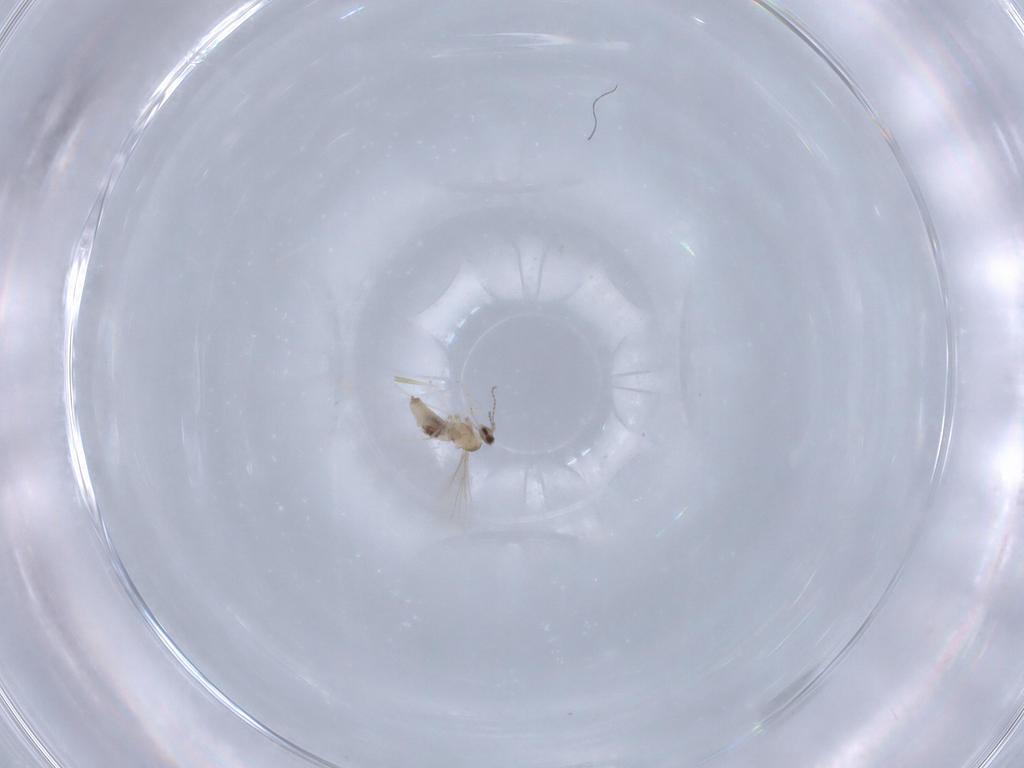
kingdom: Animalia
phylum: Arthropoda
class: Insecta
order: Diptera
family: Cecidomyiidae
